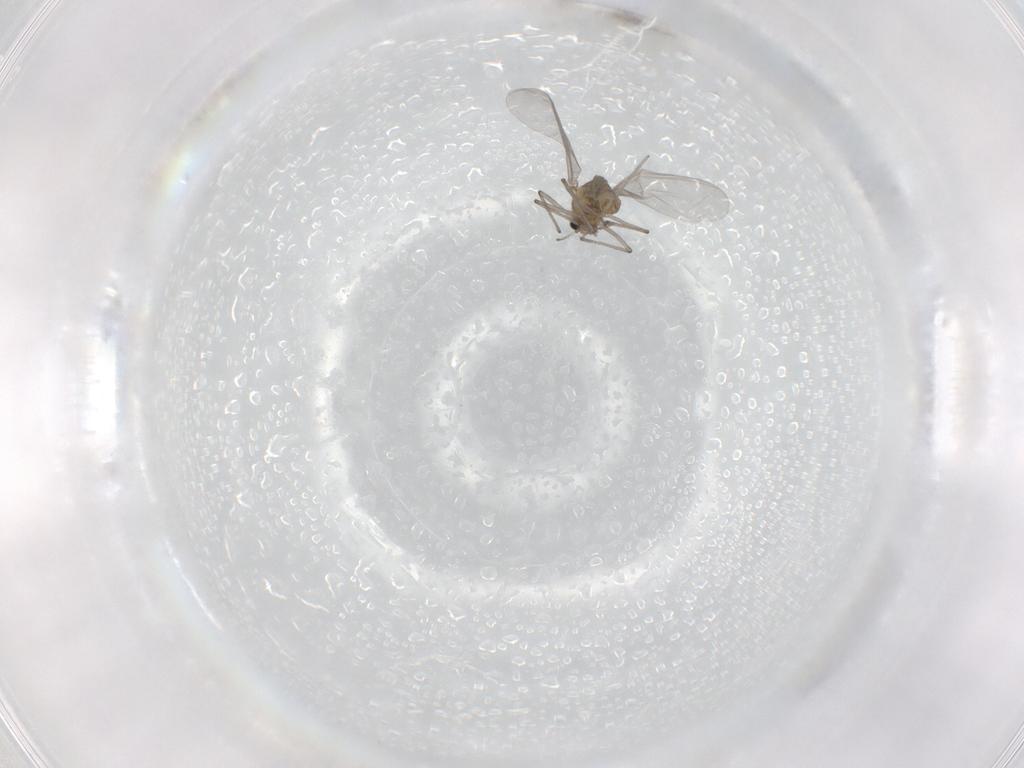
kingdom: Animalia
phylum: Arthropoda
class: Insecta
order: Diptera
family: Chironomidae
